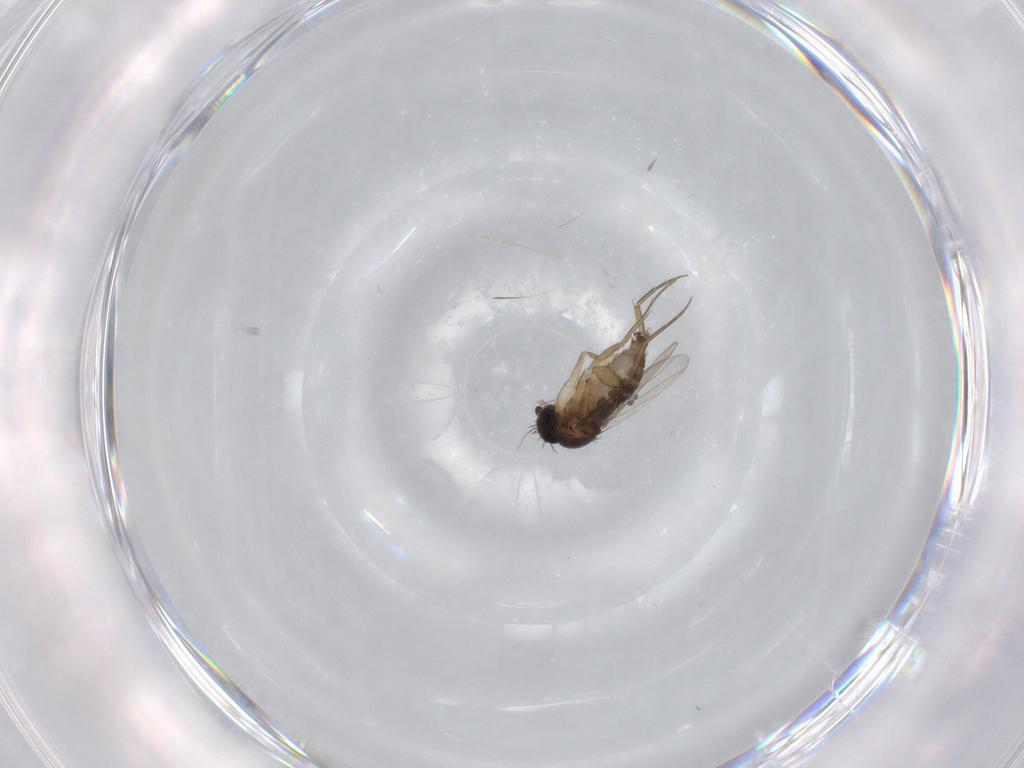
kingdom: Animalia
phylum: Arthropoda
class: Insecta
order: Diptera
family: Phoridae
